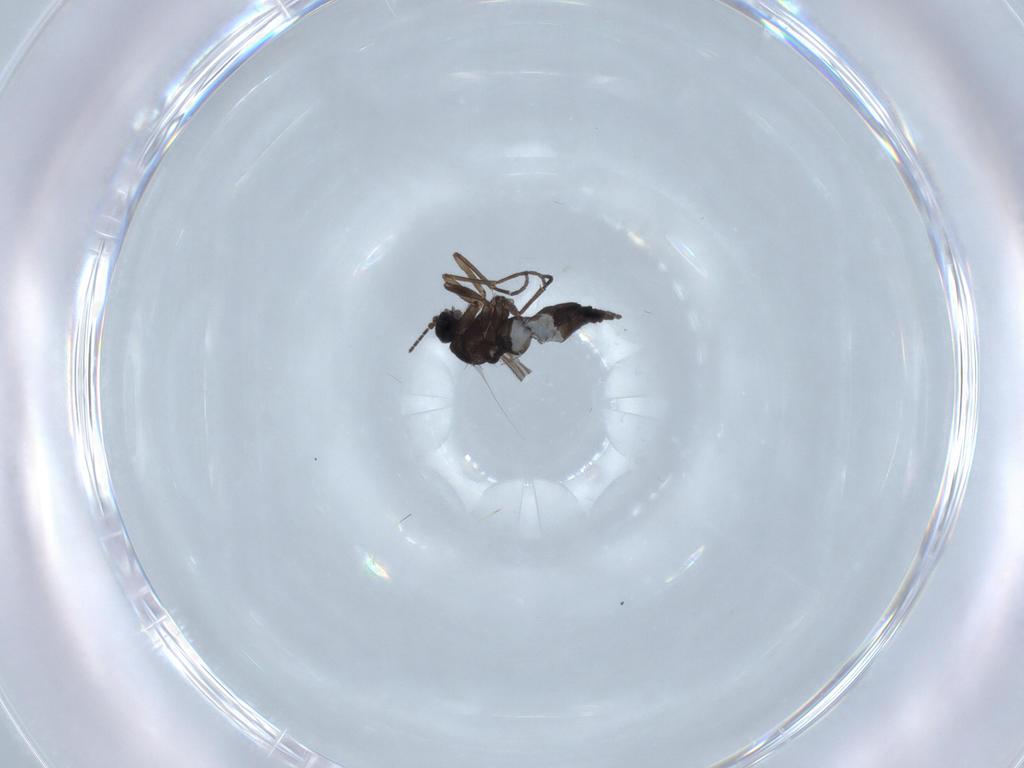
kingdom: Animalia
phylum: Arthropoda
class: Insecta
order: Diptera
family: Sciaridae
